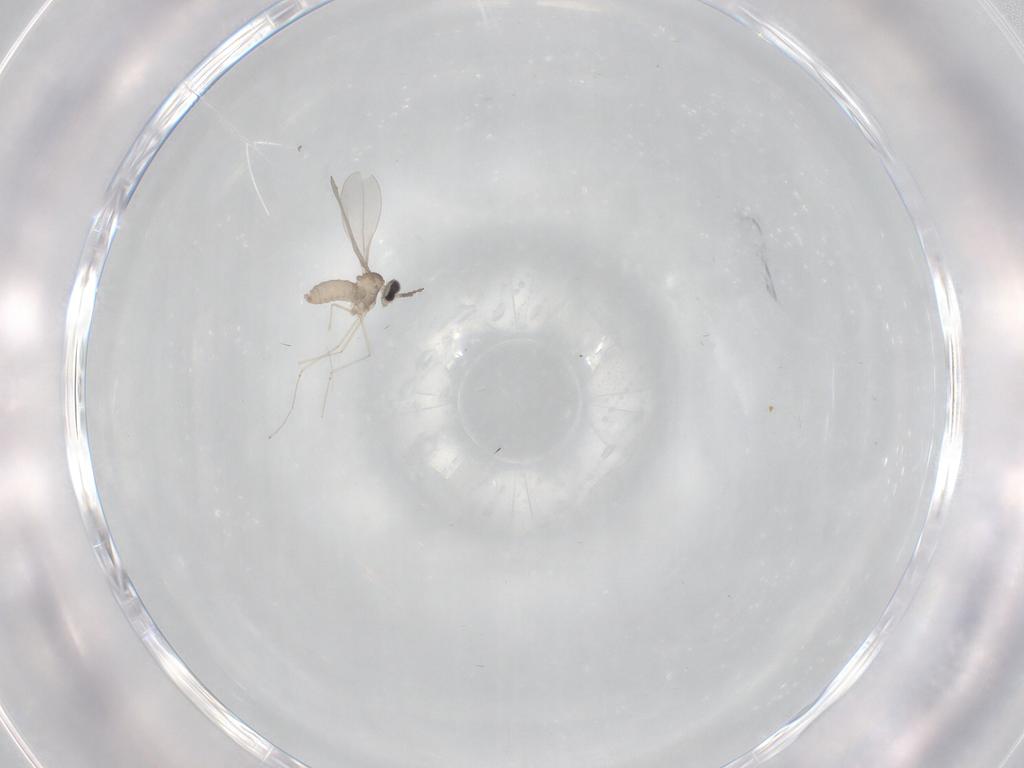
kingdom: Animalia
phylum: Arthropoda
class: Insecta
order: Diptera
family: Cecidomyiidae
